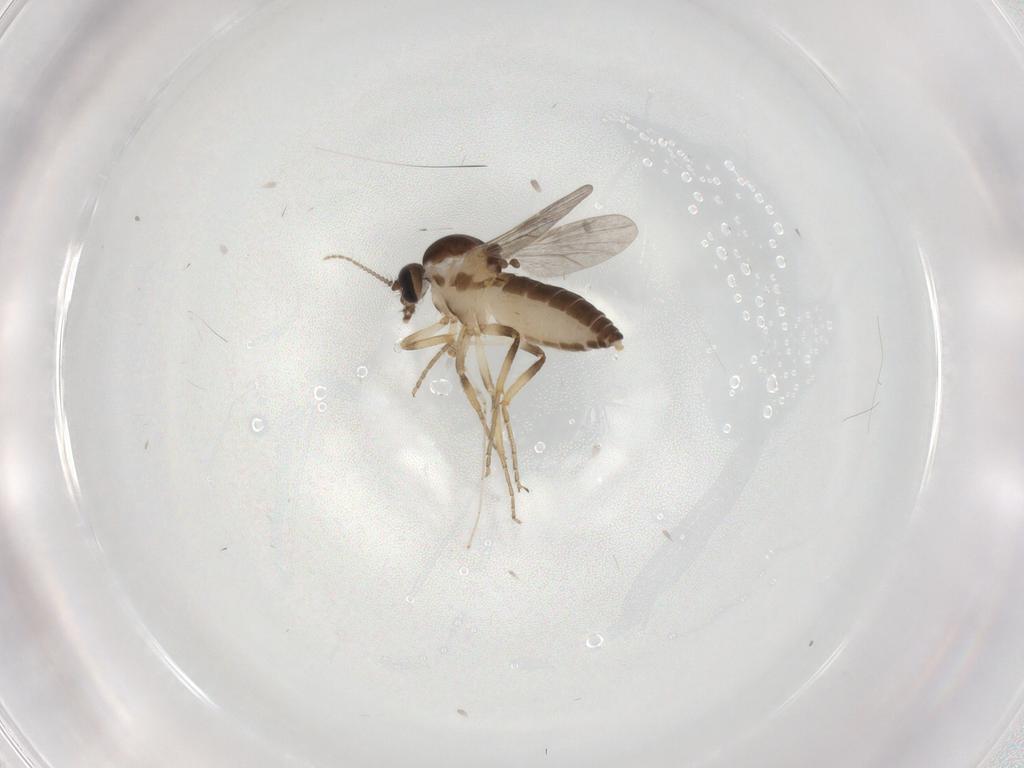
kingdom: Animalia
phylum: Arthropoda
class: Insecta
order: Diptera
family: Ceratopogonidae
